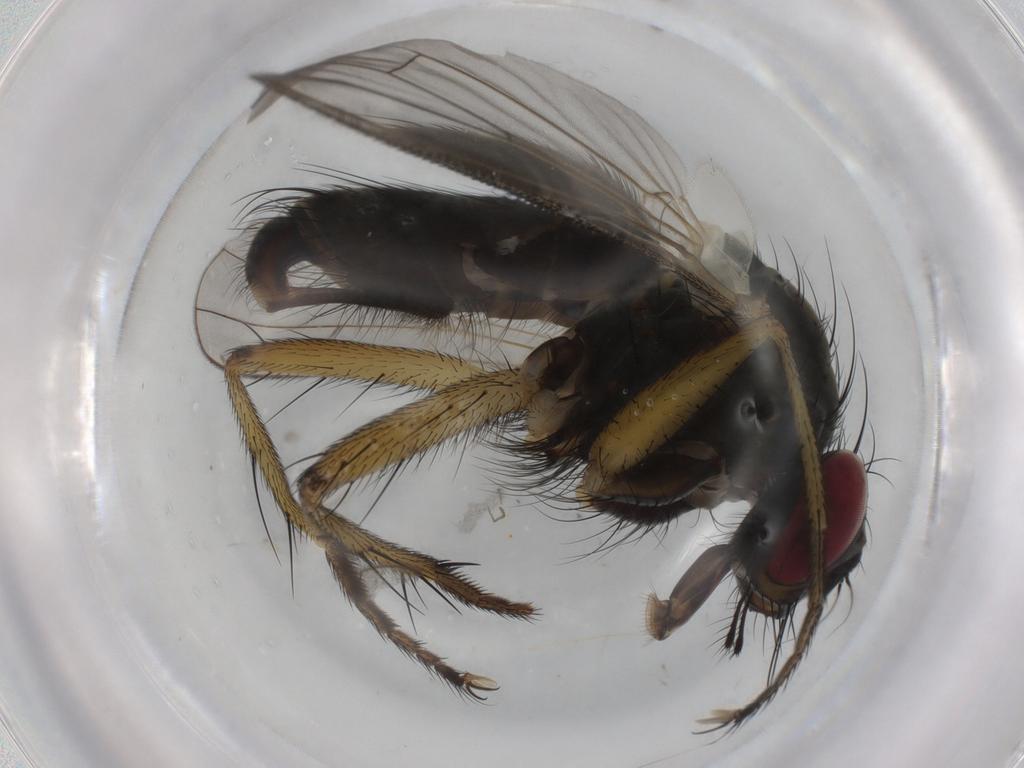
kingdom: Animalia
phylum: Arthropoda
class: Insecta
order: Diptera
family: Muscidae
